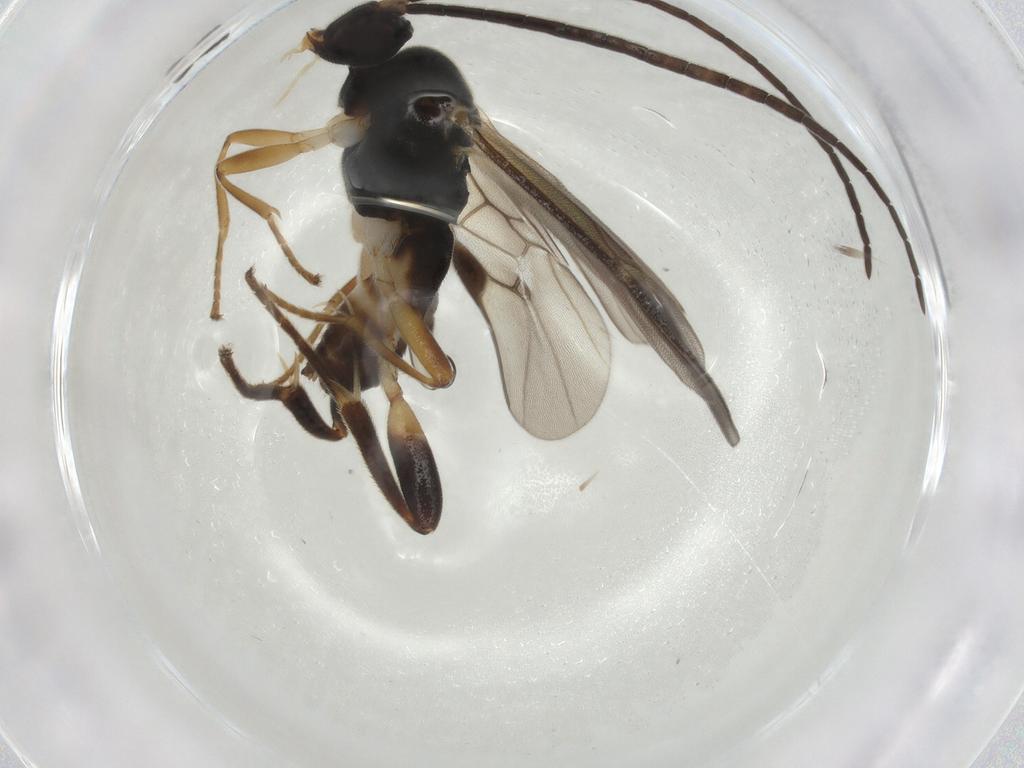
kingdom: Animalia
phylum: Arthropoda
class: Insecta
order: Hymenoptera
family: Braconidae
